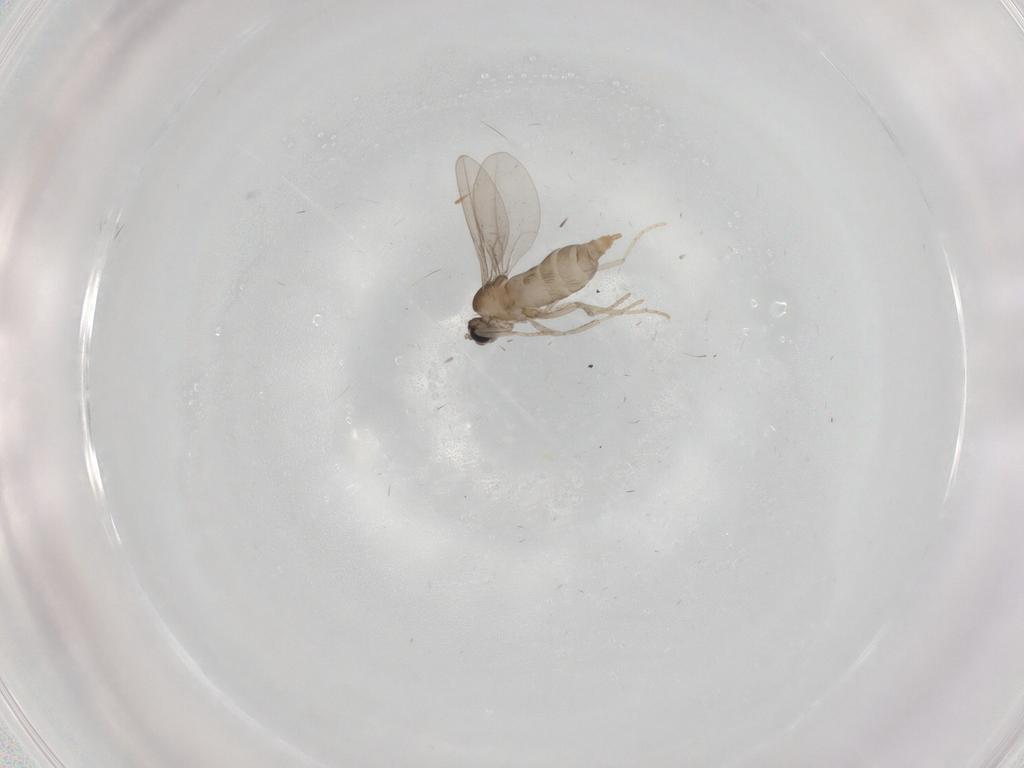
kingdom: Animalia
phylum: Arthropoda
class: Insecta
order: Diptera
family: Cecidomyiidae
